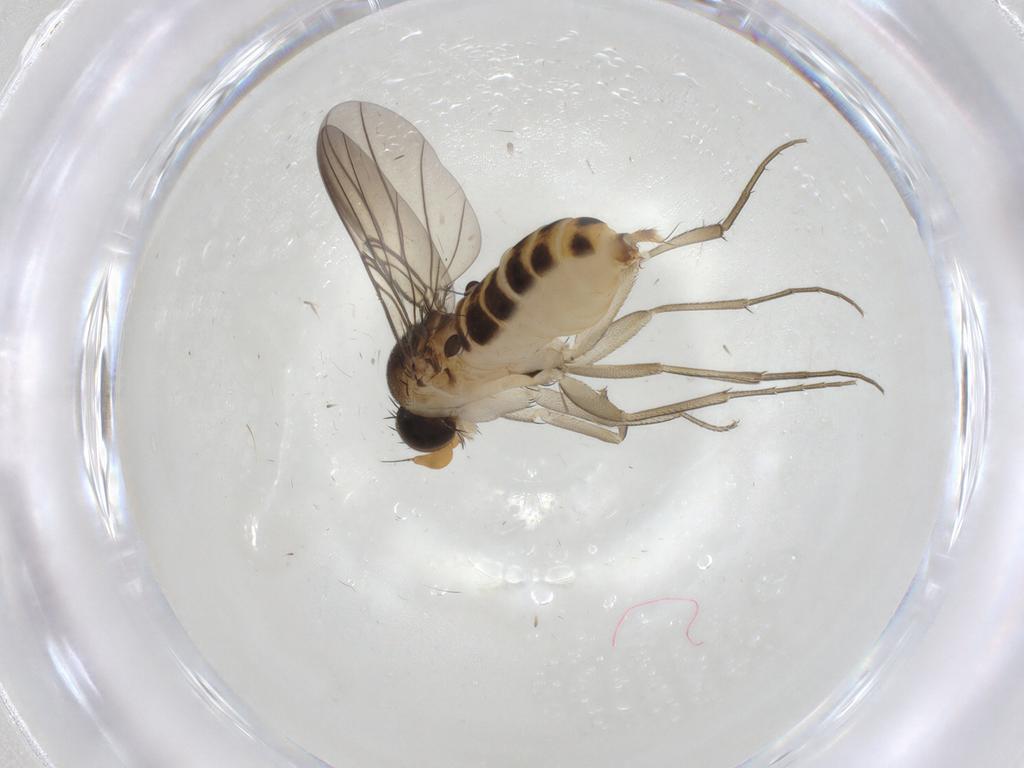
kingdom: Animalia
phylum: Arthropoda
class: Insecta
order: Diptera
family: Phoridae
